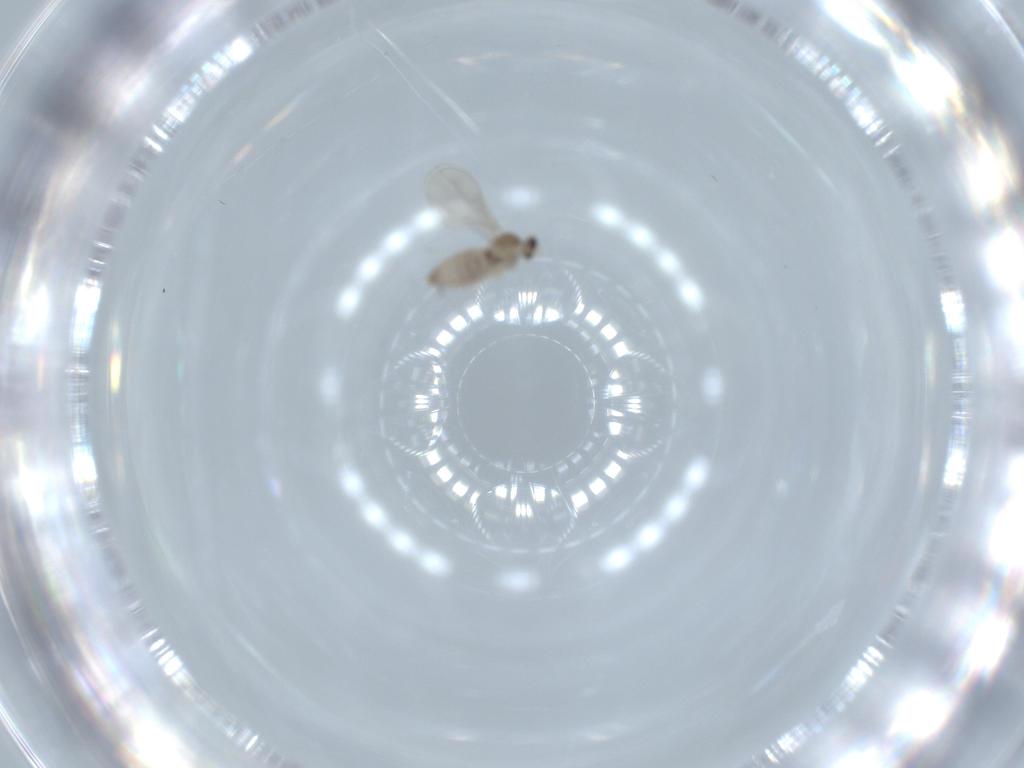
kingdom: Animalia
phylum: Arthropoda
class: Insecta
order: Diptera
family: Cecidomyiidae
